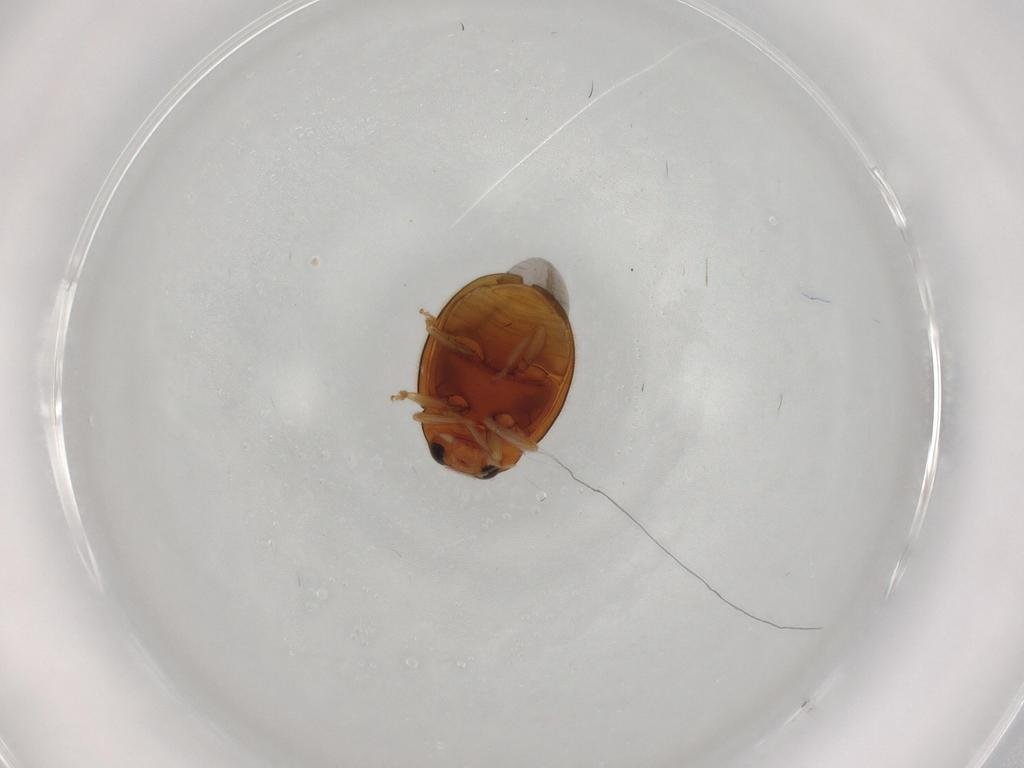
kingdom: Animalia
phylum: Arthropoda
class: Insecta
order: Coleoptera
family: Coccinellidae
